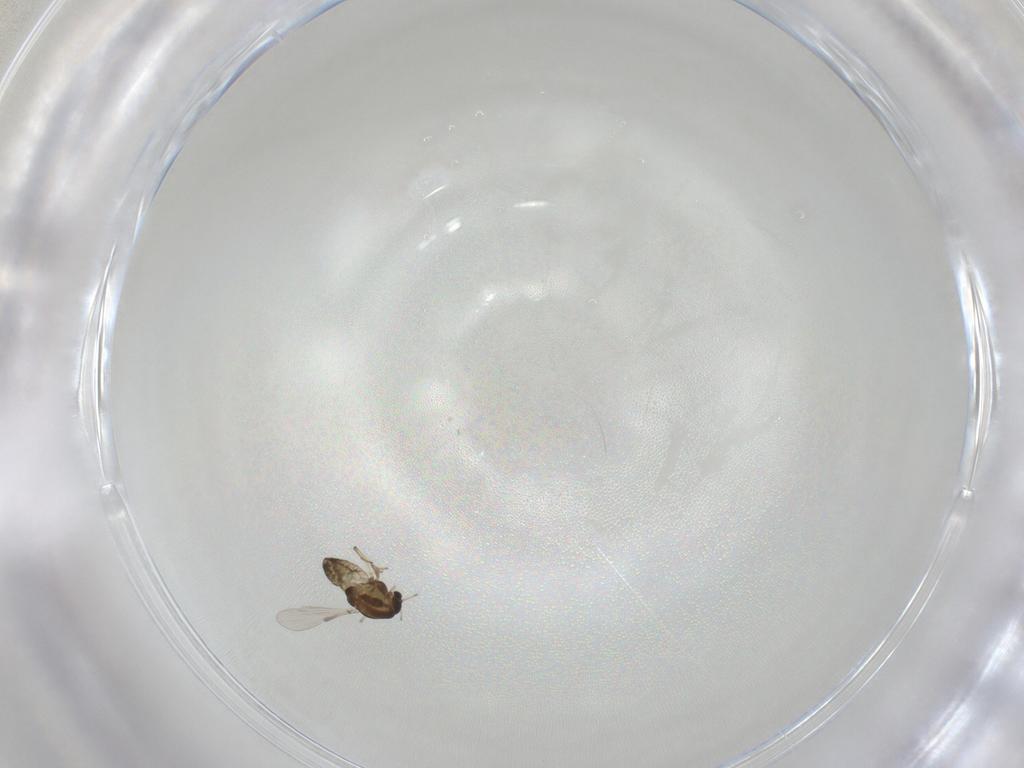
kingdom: Animalia
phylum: Arthropoda
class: Insecta
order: Diptera
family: Chironomidae
